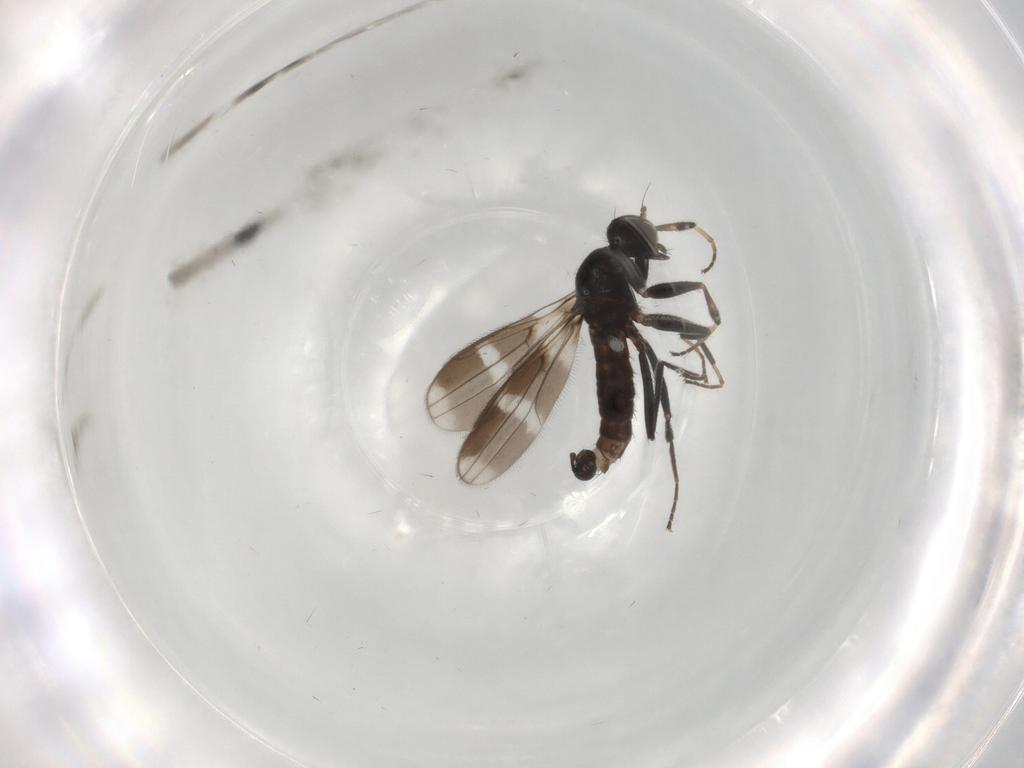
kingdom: Animalia
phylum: Arthropoda
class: Insecta
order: Diptera
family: Hybotidae
